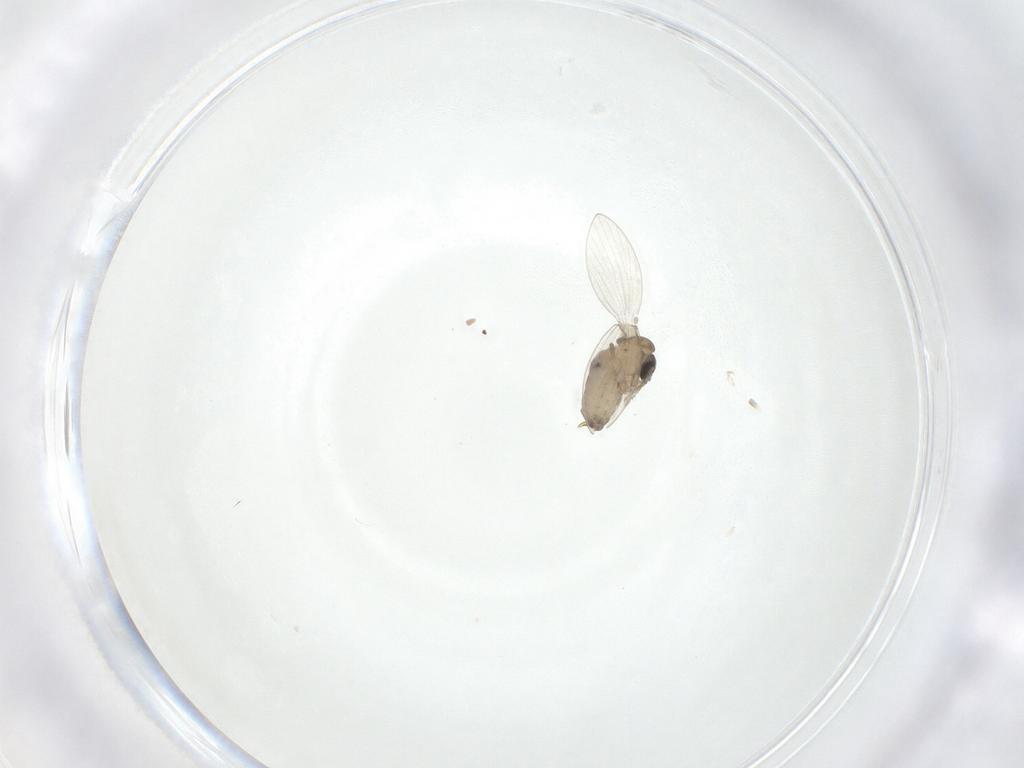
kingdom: Animalia
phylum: Arthropoda
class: Insecta
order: Diptera
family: Psychodidae
